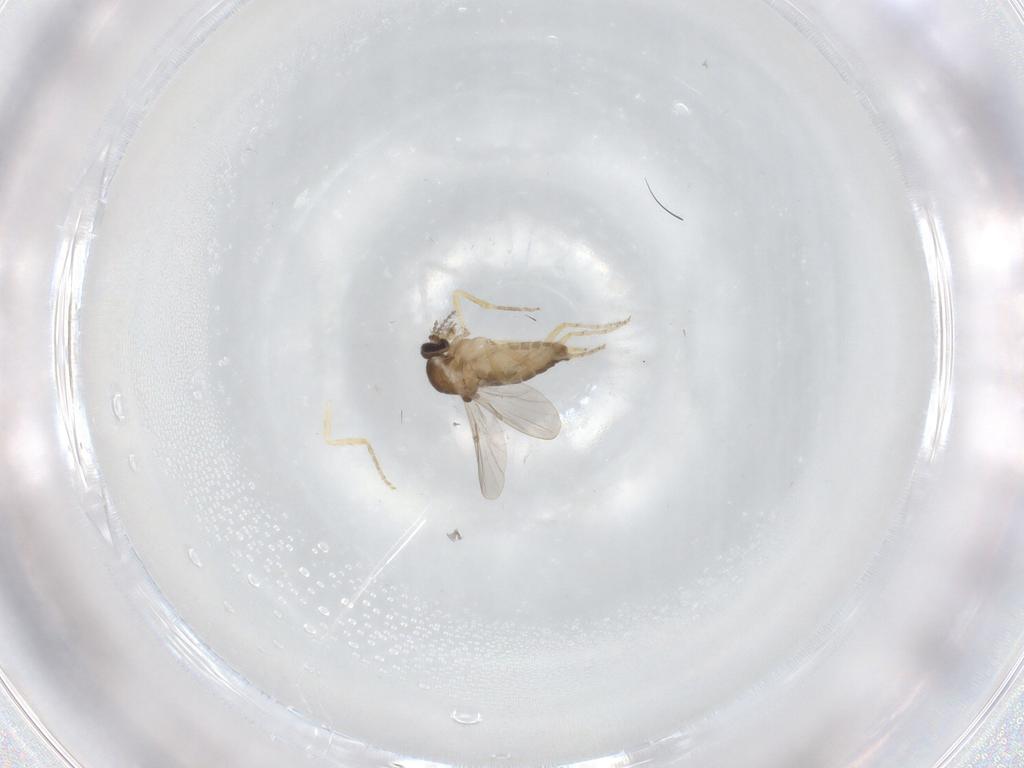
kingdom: Animalia
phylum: Arthropoda
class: Insecta
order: Diptera
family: Ceratopogonidae
